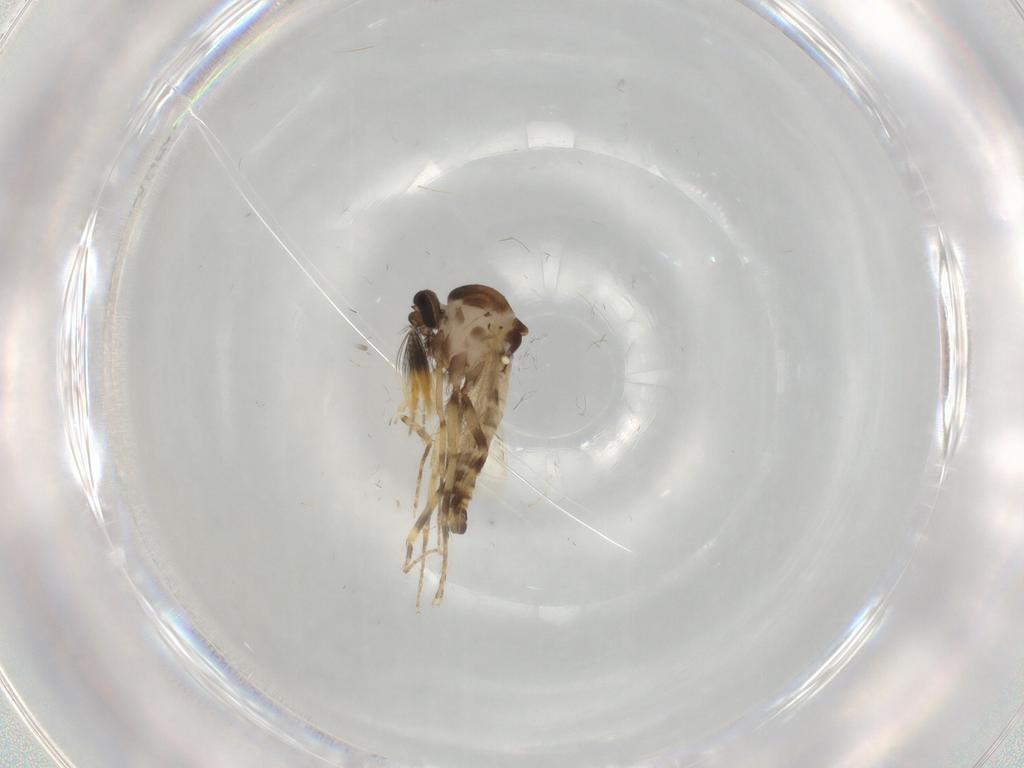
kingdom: Animalia
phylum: Arthropoda
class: Insecta
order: Diptera
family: Ceratopogonidae
